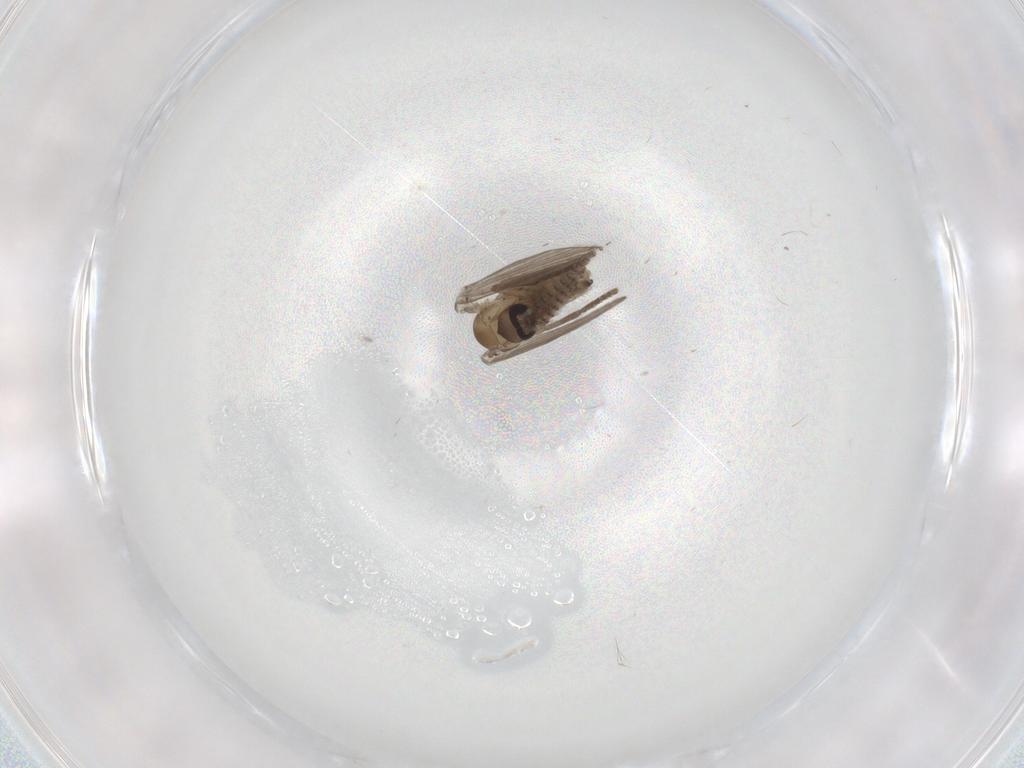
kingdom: Animalia
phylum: Arthropoda
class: Insecta
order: Diptera
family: Psychodidae
